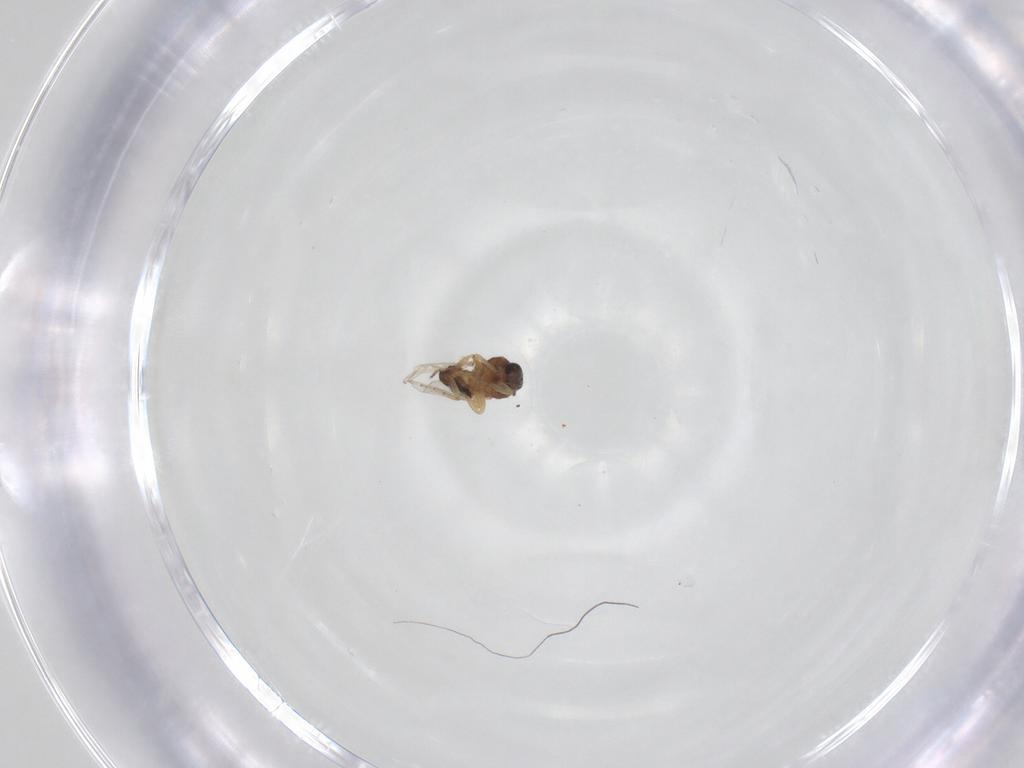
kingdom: Animalia
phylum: Arthropoda
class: Insecta
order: Diptera
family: Ceratopogonidae
